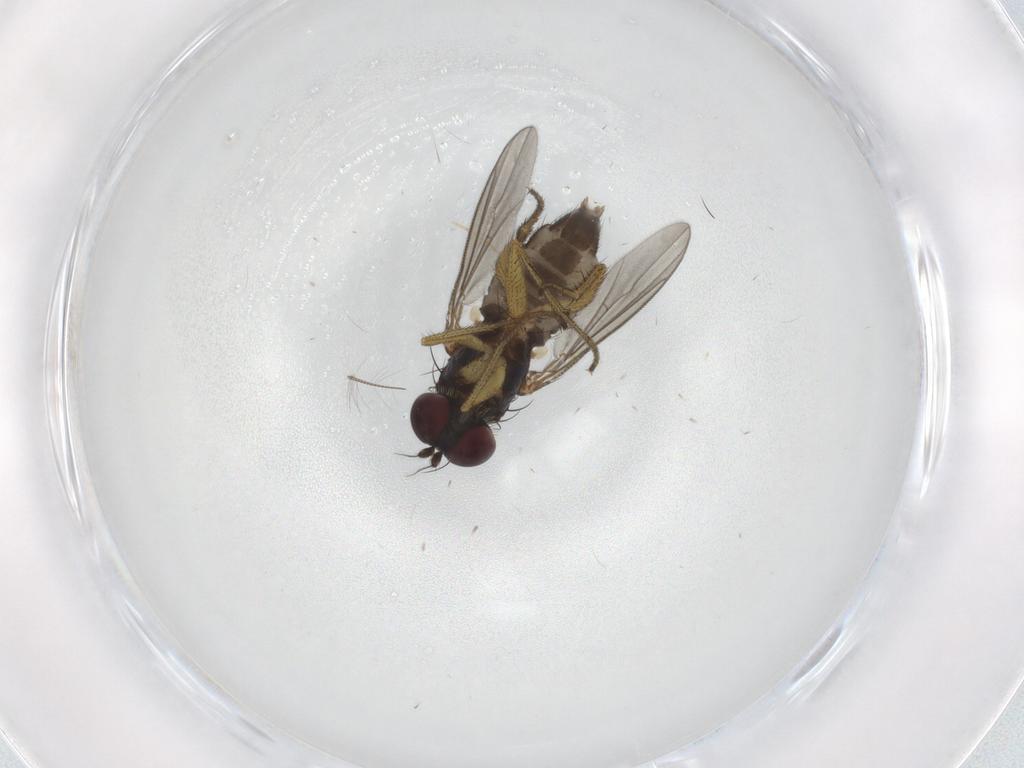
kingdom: Animalia
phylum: Arthropoda
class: Insecta
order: Diptera
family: Dolichopodidae
